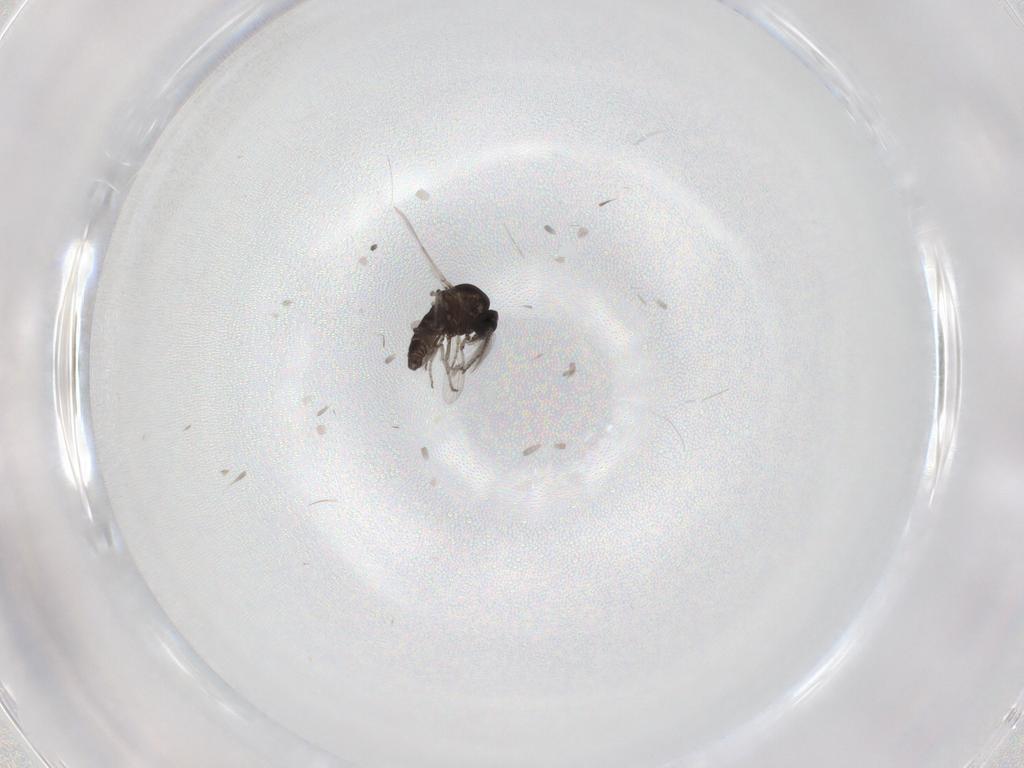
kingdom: Animalia
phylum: Arthropoda
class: Insecta
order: Diptera
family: Ceratopogonidae
